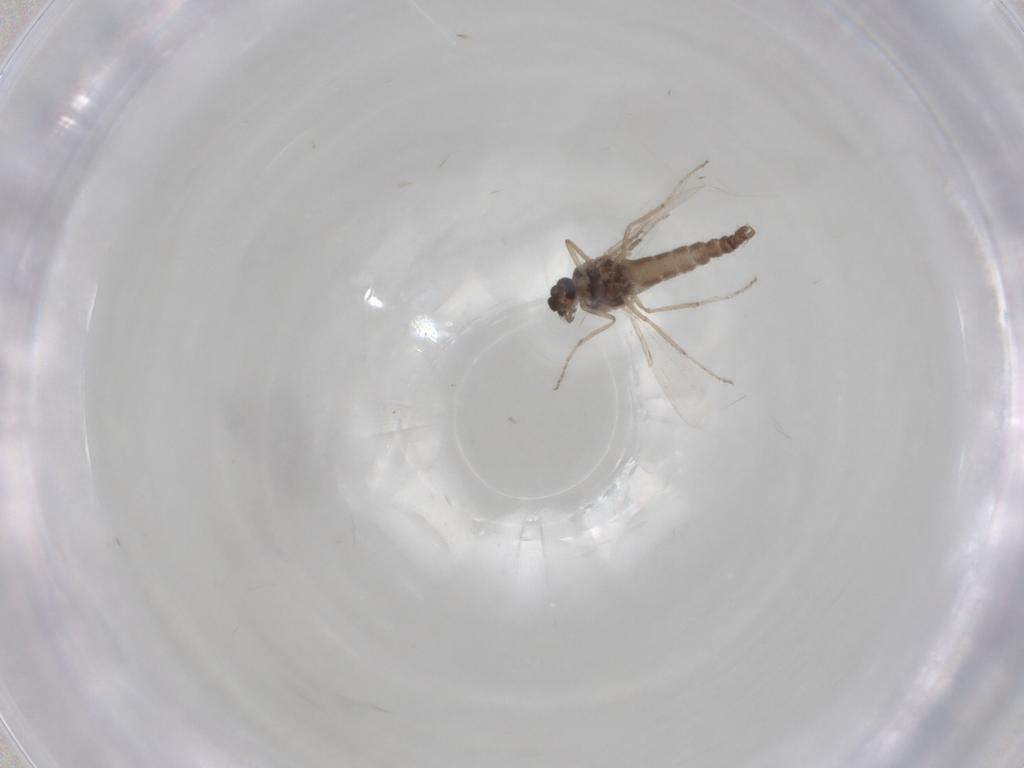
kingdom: Animalia
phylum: Arthropoda
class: Insecta
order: Diptera
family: Ceratopogonidae
